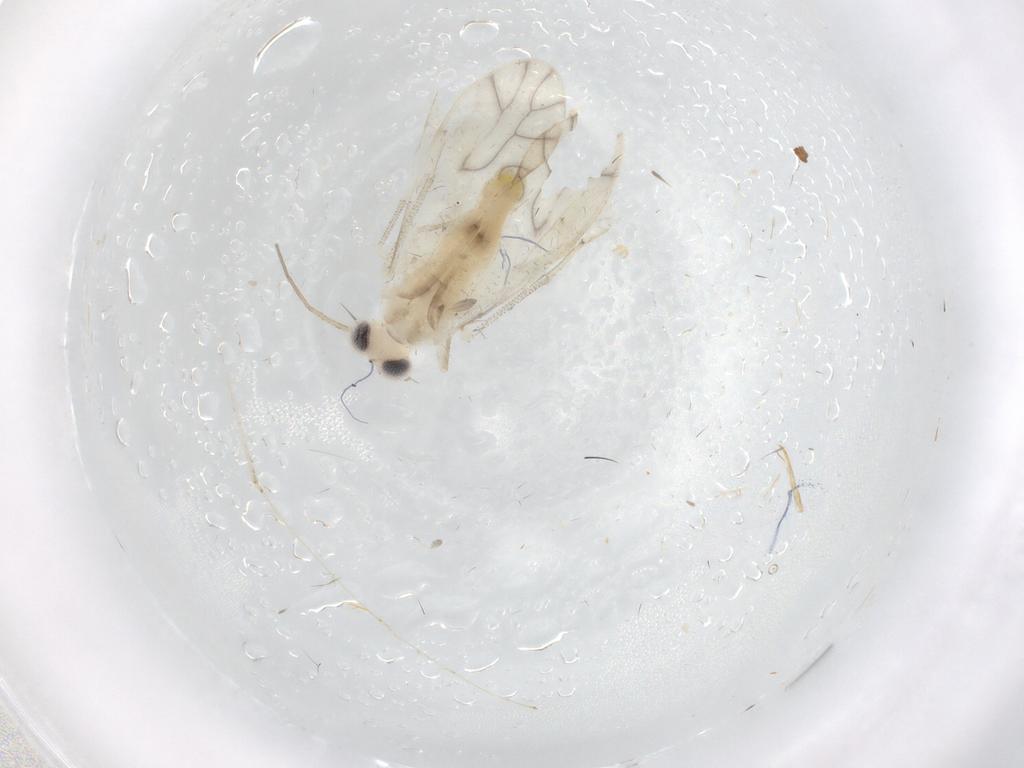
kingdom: Animalia
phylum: Arthropoda
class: Insecta
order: Psocodea
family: Caeciliusidae
